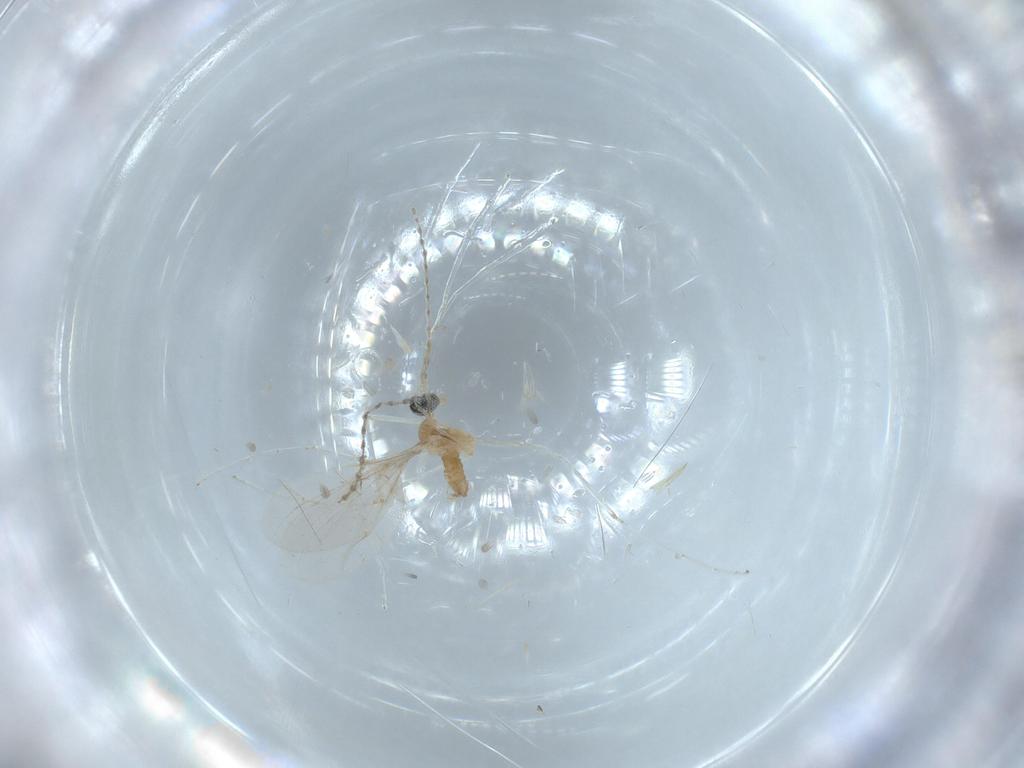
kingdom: Animalia
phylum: Arthropoda
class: Insecta
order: Diptera
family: Cecidomyiidae
